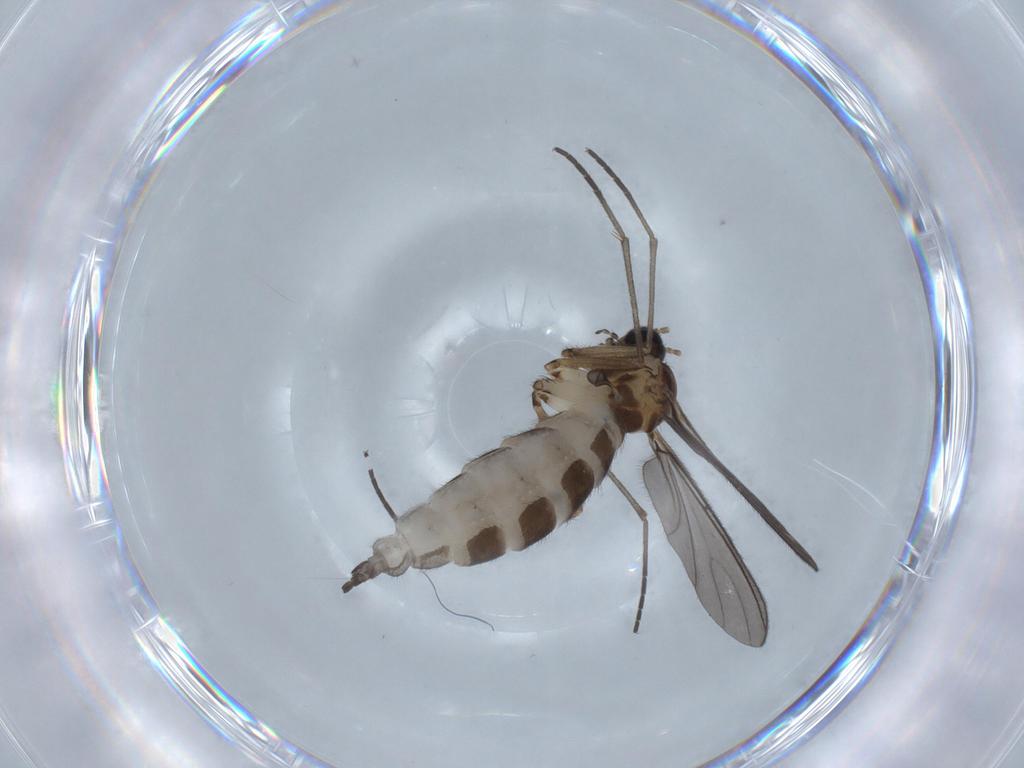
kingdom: Animalia
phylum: Arthropoda
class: Insecta
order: Diptera
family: Sciaridae
